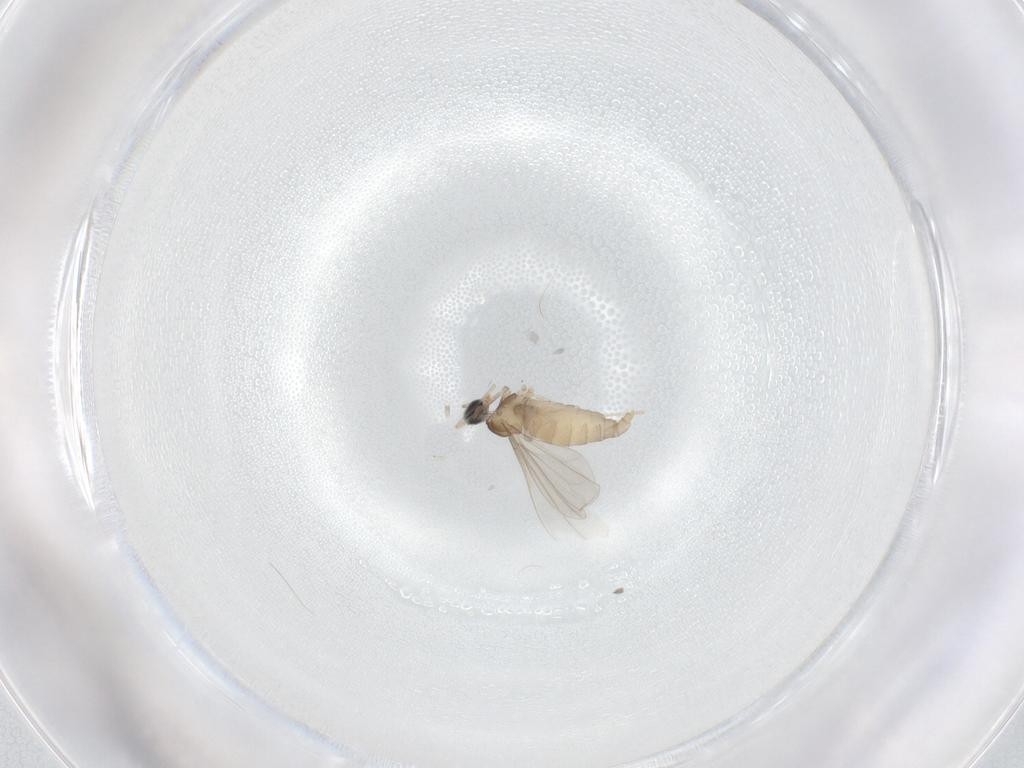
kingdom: Animalia
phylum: Arthropoda
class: Insecta
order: Diptera
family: Cecidomyiidae
